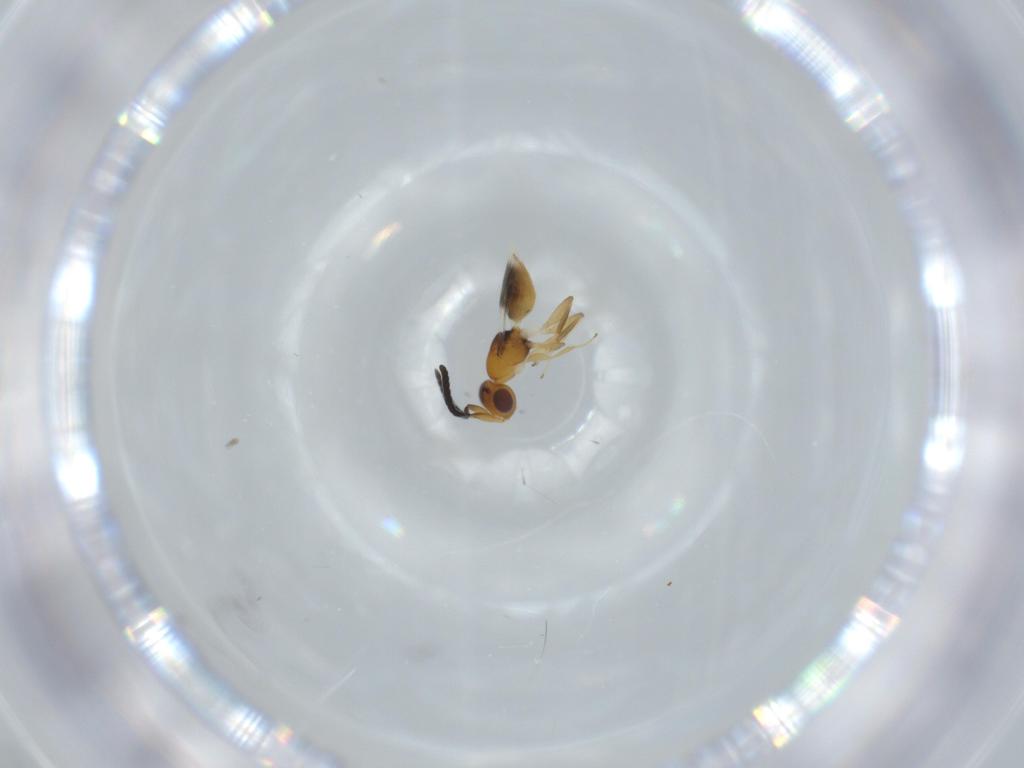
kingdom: Animalia
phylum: Arthropoda
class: Insecta
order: Hymenoptera
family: Megaspilidae
